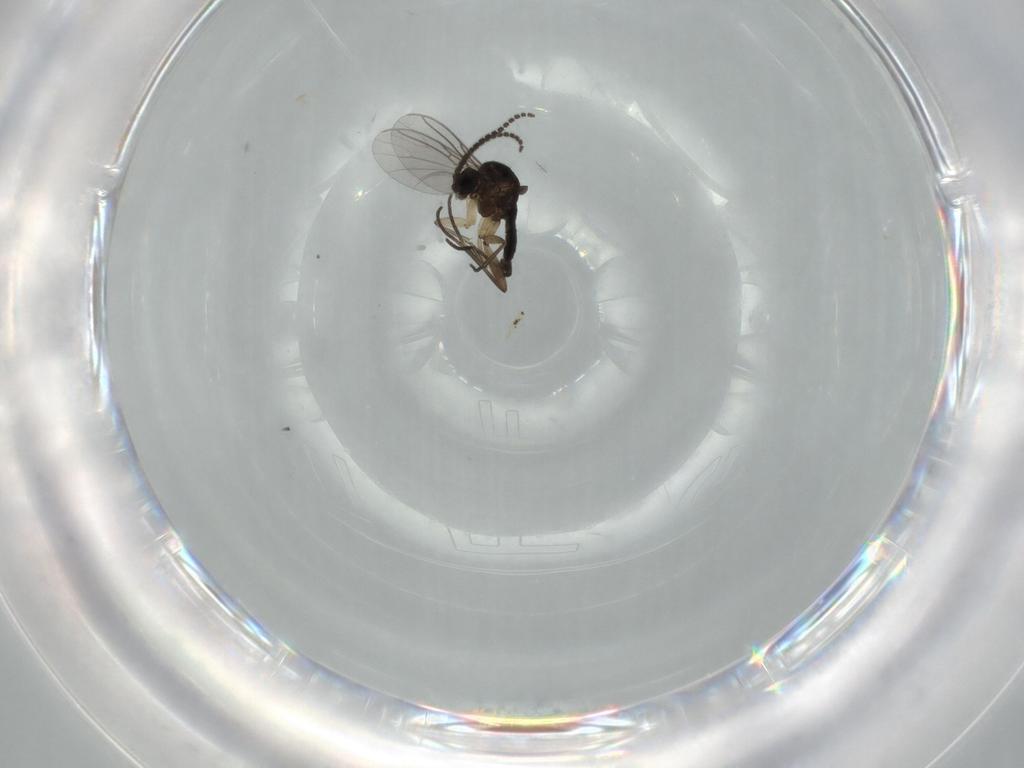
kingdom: Animalia
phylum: Arthropoda
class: Insecta
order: Diptera
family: Sciaridae
